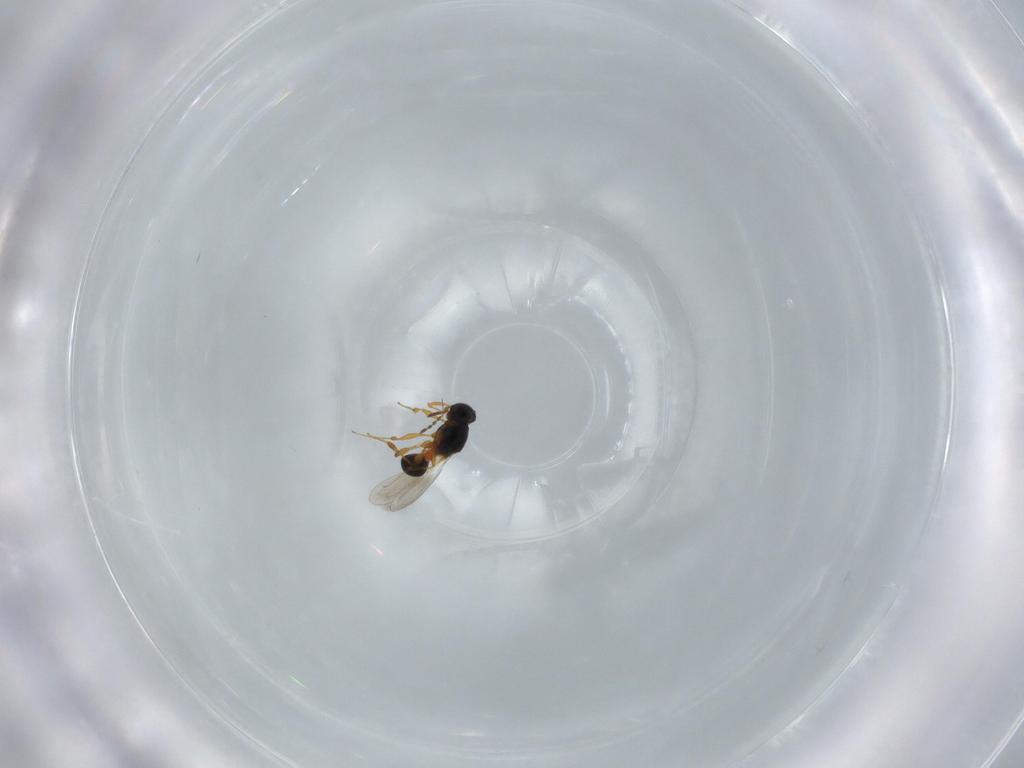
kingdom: Animalia
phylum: Arthropoda
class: Insecta
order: Hymenoptera
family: Platygastridae
